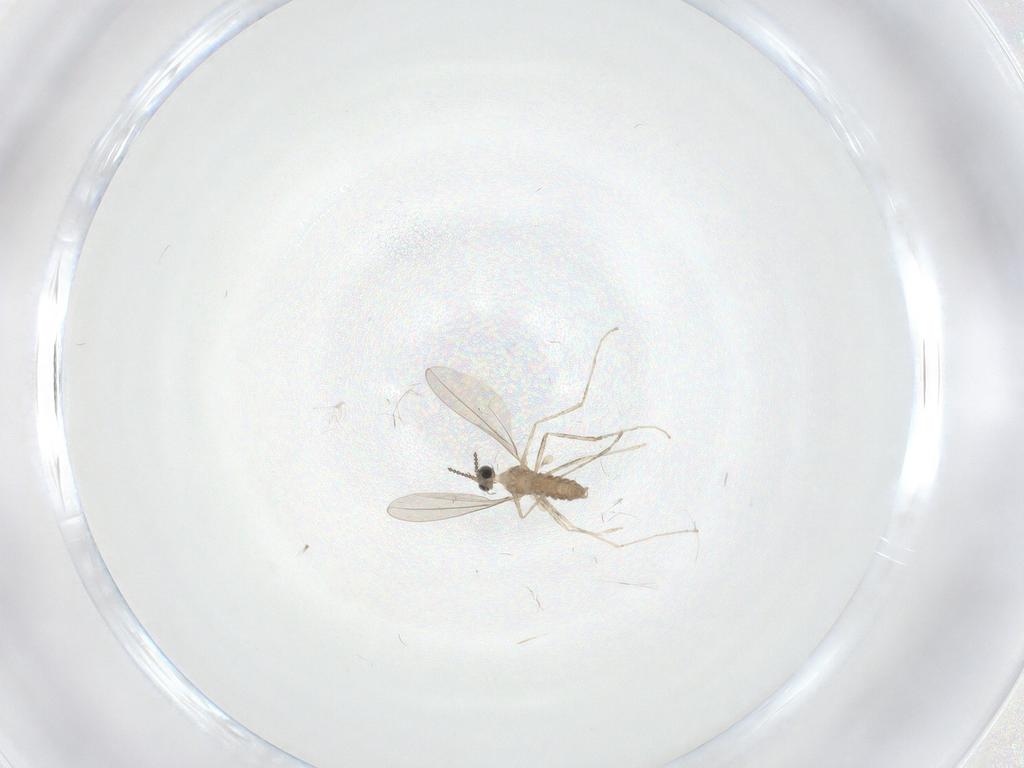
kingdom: Animalia
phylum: Arthropoda
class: Insecta
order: Diptera
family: Cecidomyiidae
